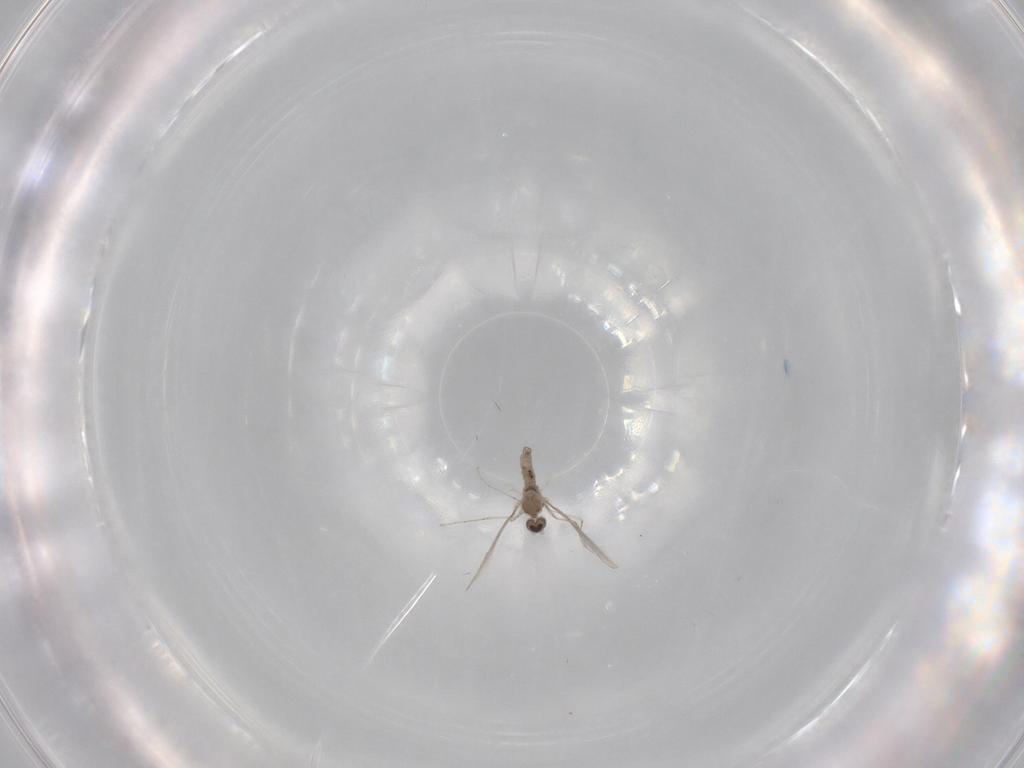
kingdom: Animalia
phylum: Arthropoda
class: Insecta
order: Diptera
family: Cecidomyiidae
